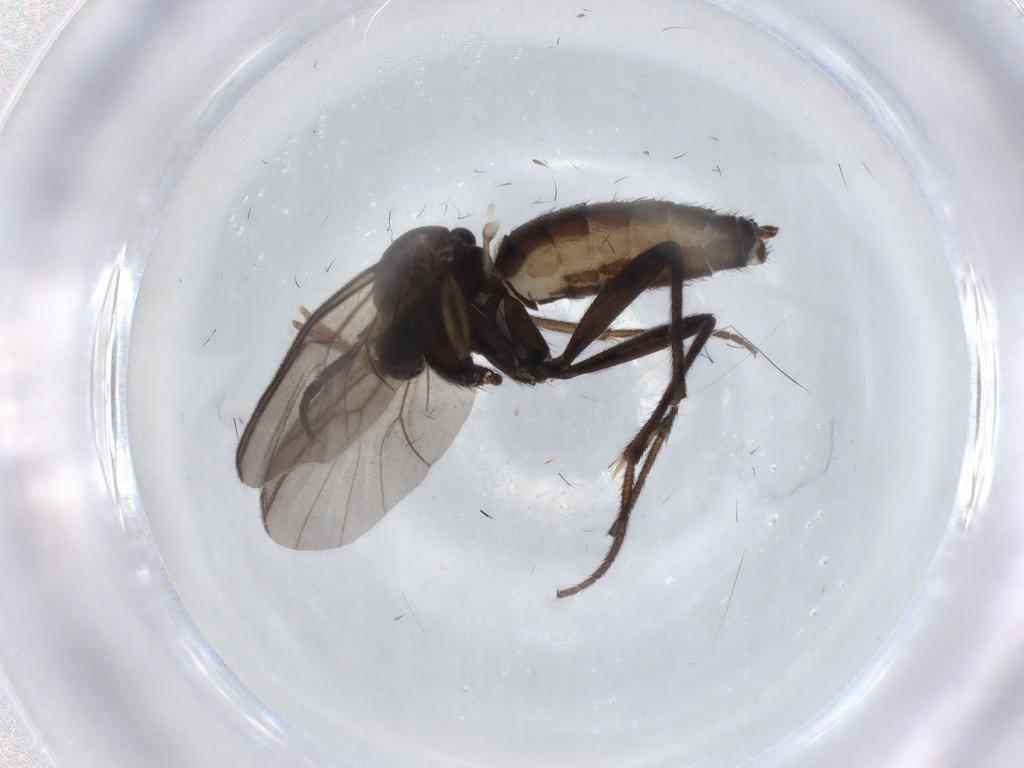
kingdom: Animalia
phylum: Arthropoda
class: Insecta
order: Diptera
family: Mycetophilidae
